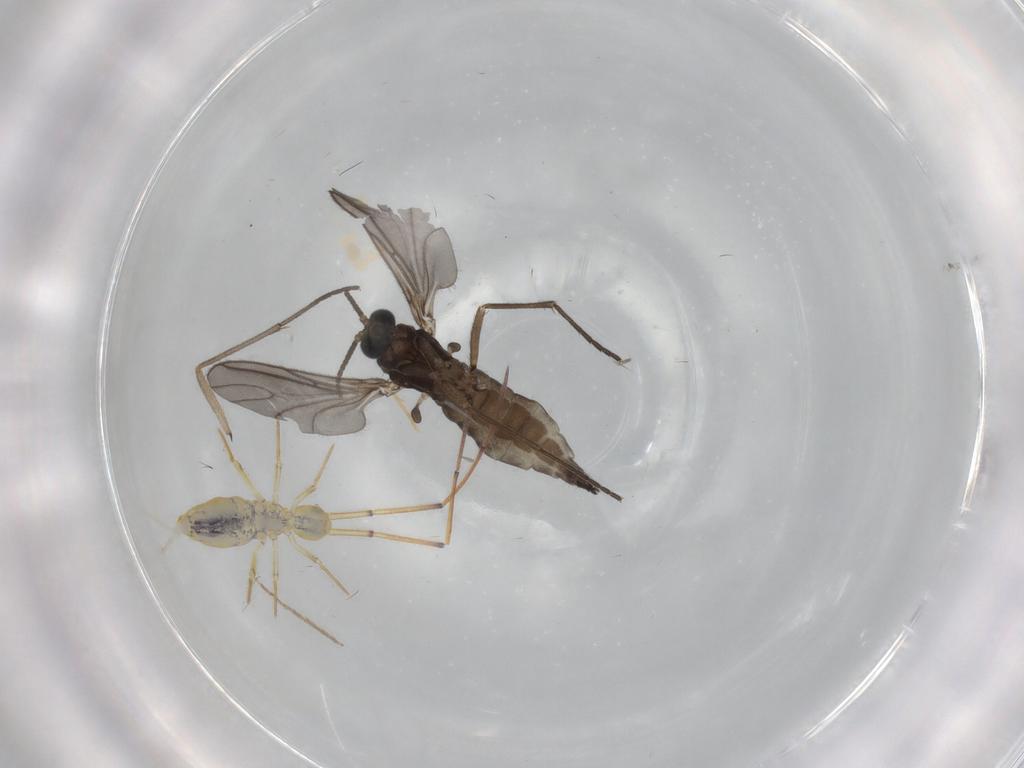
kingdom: Animalia
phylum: Arthropoda
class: Insecta
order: Diptera
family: Sciaridae
